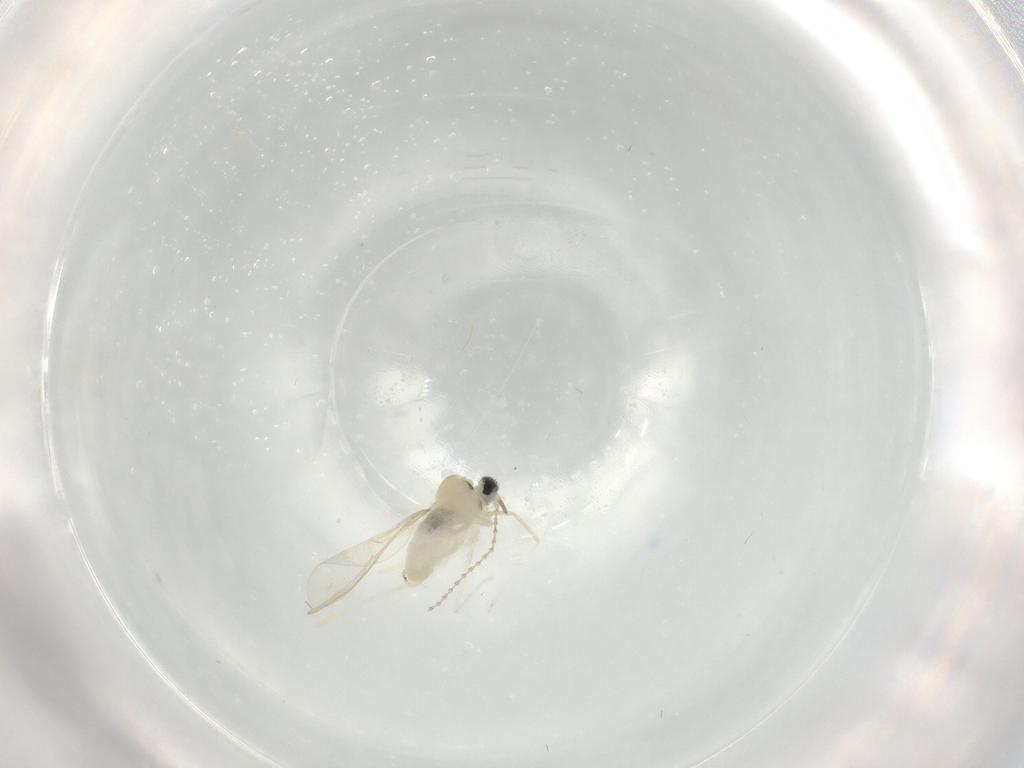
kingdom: Animalia
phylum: Arthropoda
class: Insecta
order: Diptera
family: Cecidomyiidae
